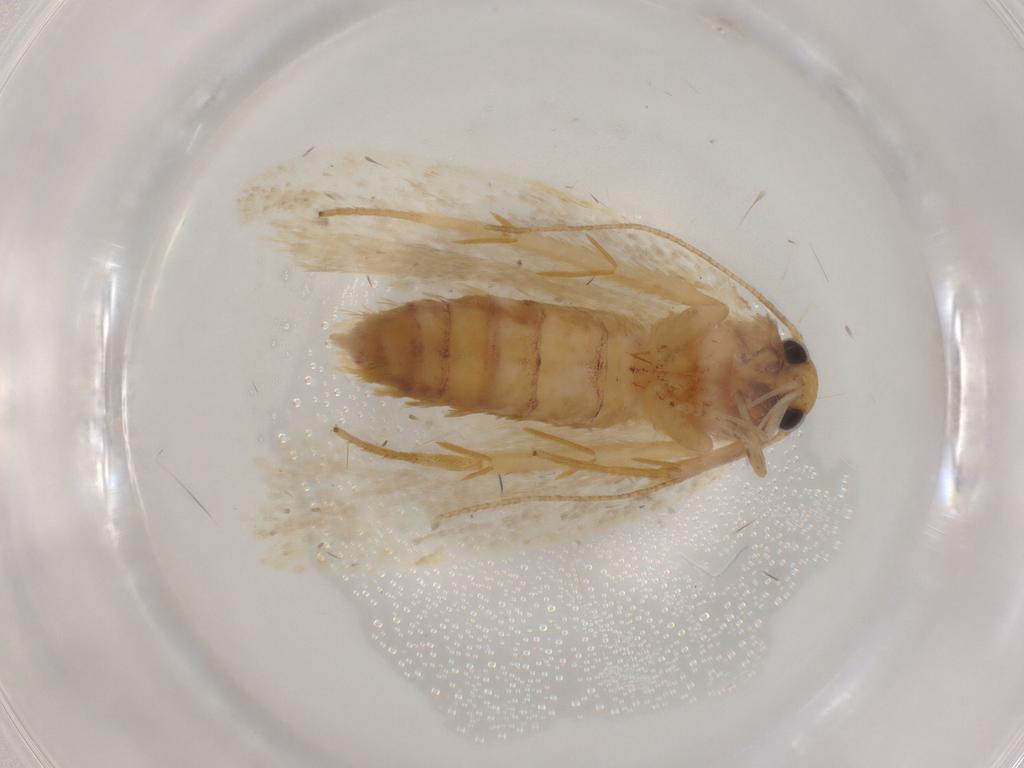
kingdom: Animalia
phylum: Arthropoda
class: Insecta
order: Lepidoptera
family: Depressariidae
